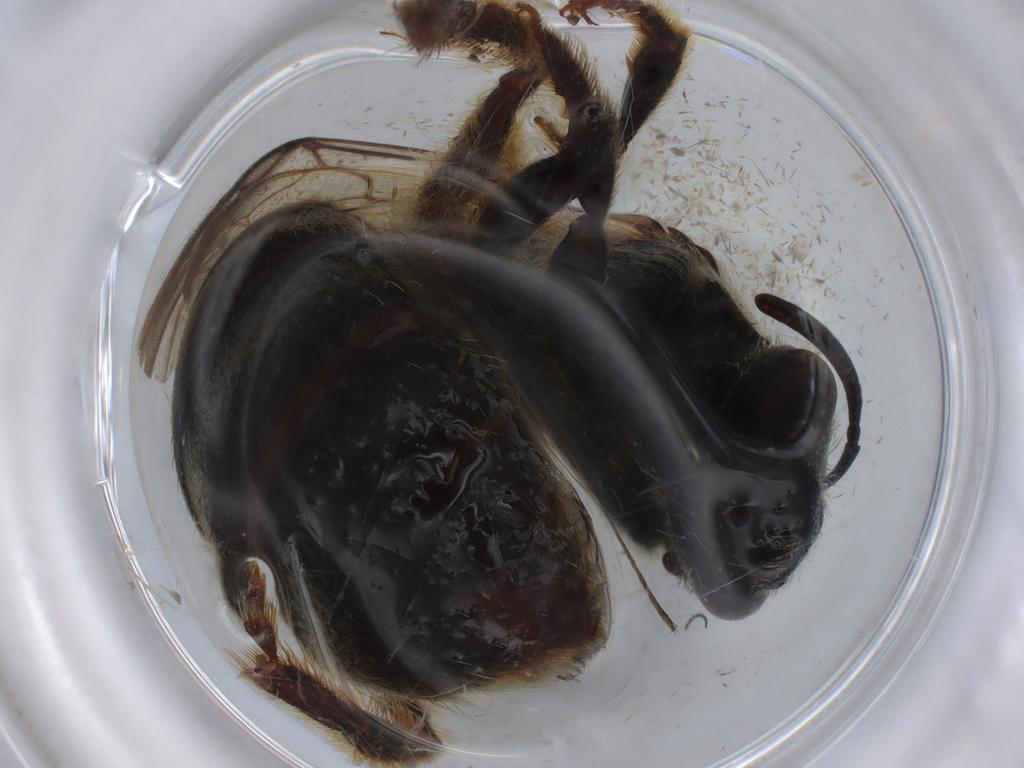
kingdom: Animalia
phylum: Arthropoda
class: Insecta
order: Hymenoptera
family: Halictidae
